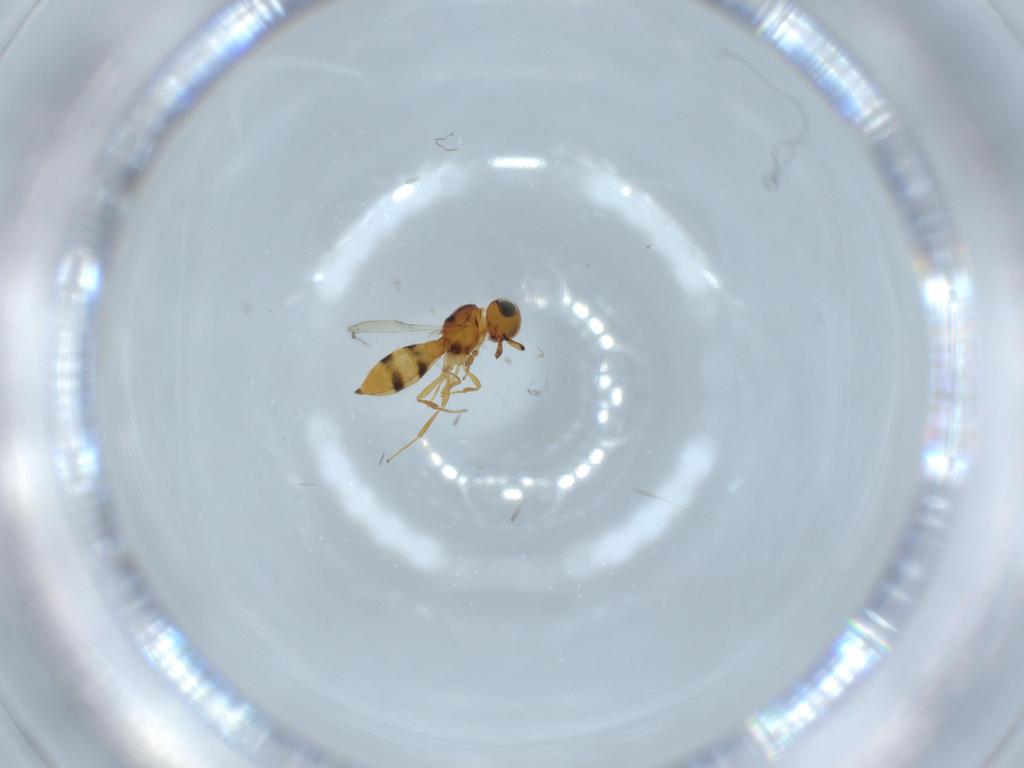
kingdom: Animalia
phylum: Arthropoda
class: Insecta
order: Hymenoptera
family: Scelionidae
